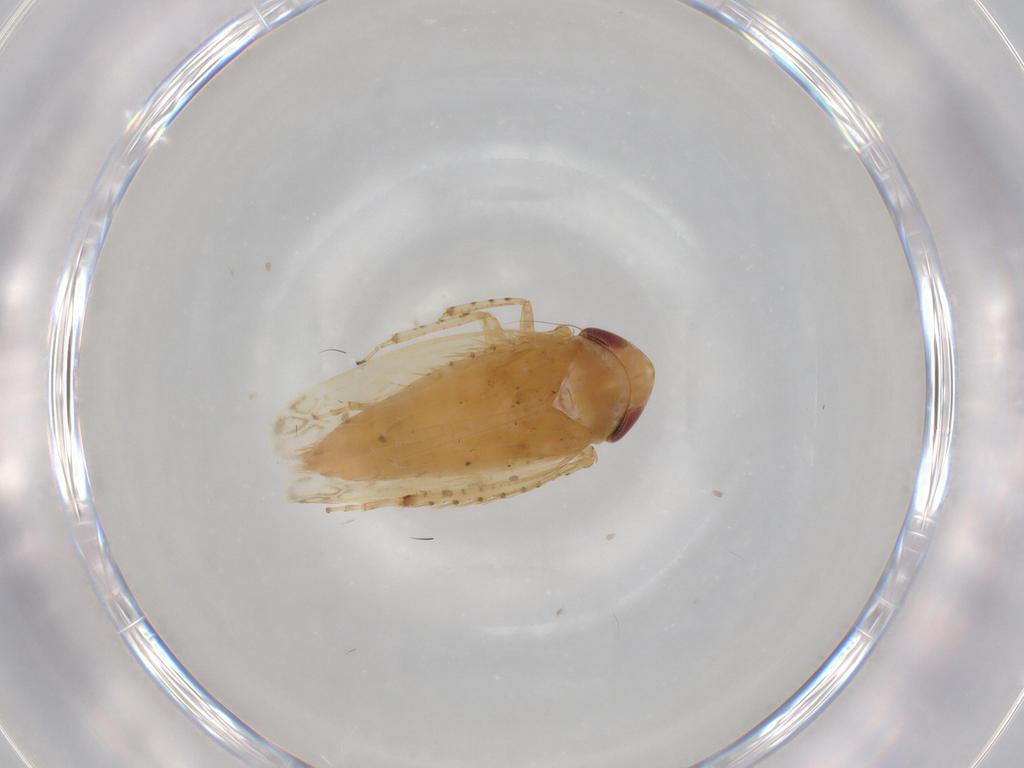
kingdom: Animalia
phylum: Arthropoda
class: Insecta
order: Hemiptera
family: Cicadellidae
